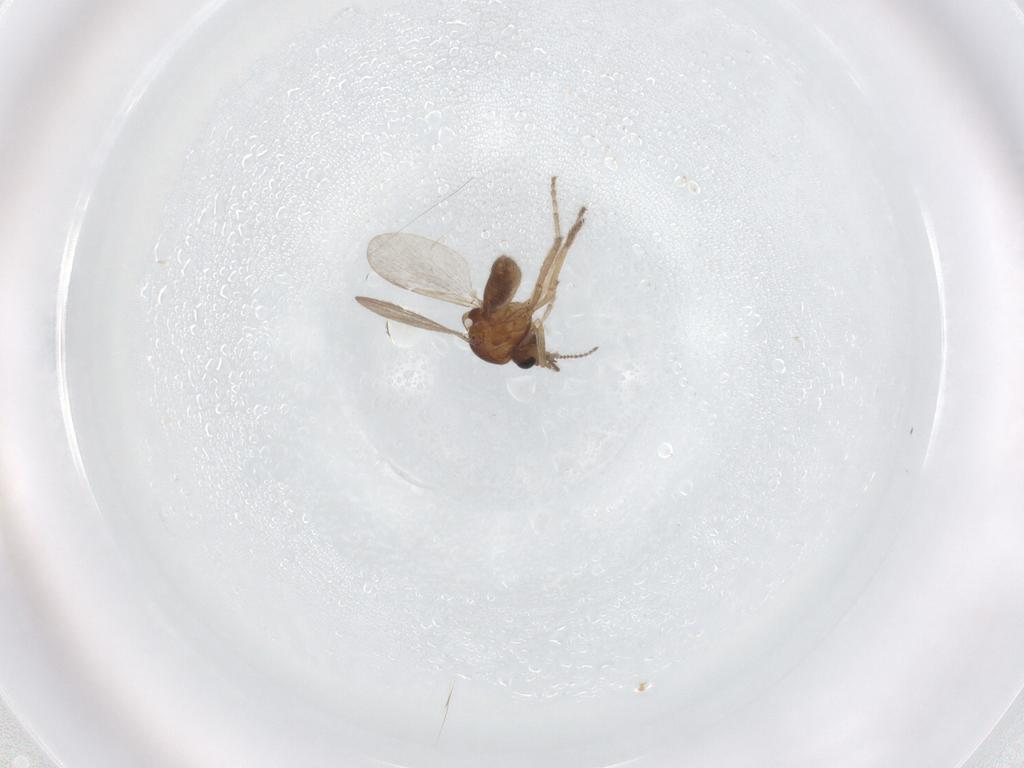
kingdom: Animalia
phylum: Arthropoda
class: Insecta
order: Diptera
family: Ceratopogonidae
